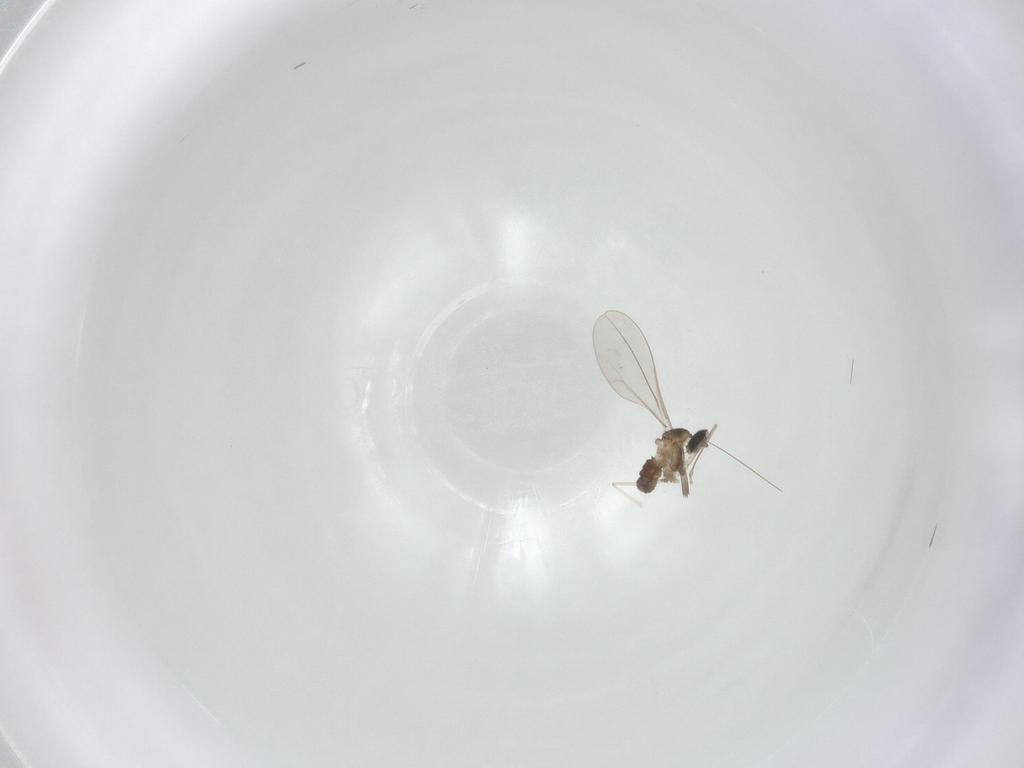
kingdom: Animalia
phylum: Arthropoda
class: Insecta
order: Diptera
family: Cecidomyiidae
